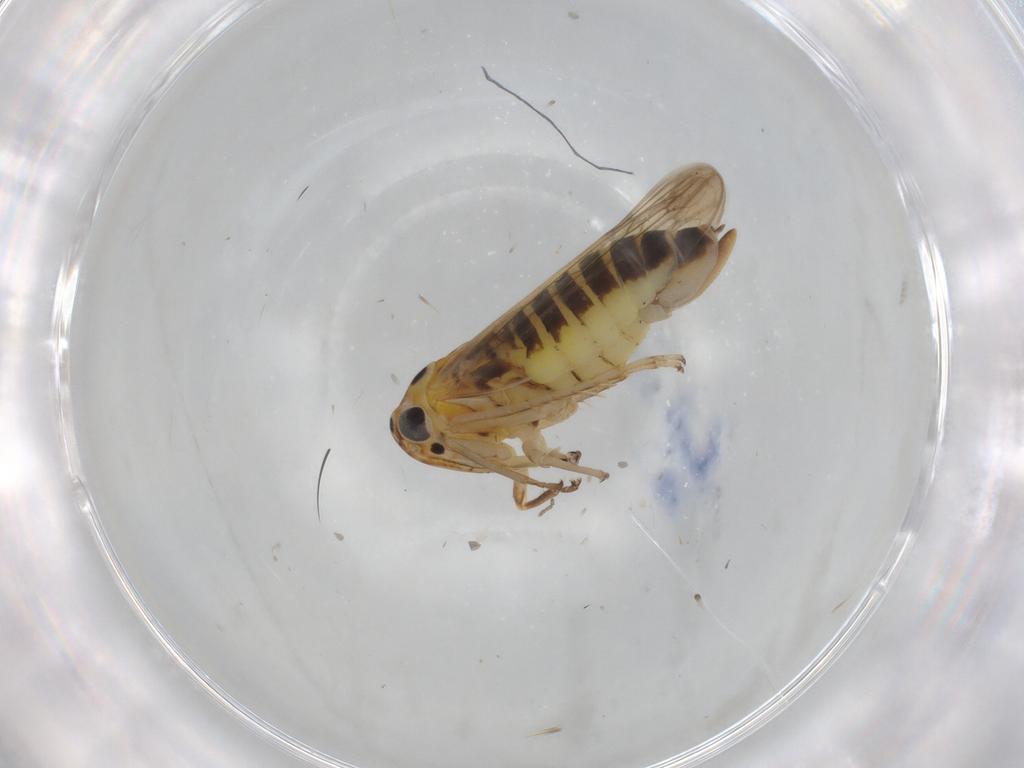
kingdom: Animalia
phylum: Arthropoda
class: Insecta
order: Hemiptera
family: Cicadellidae
